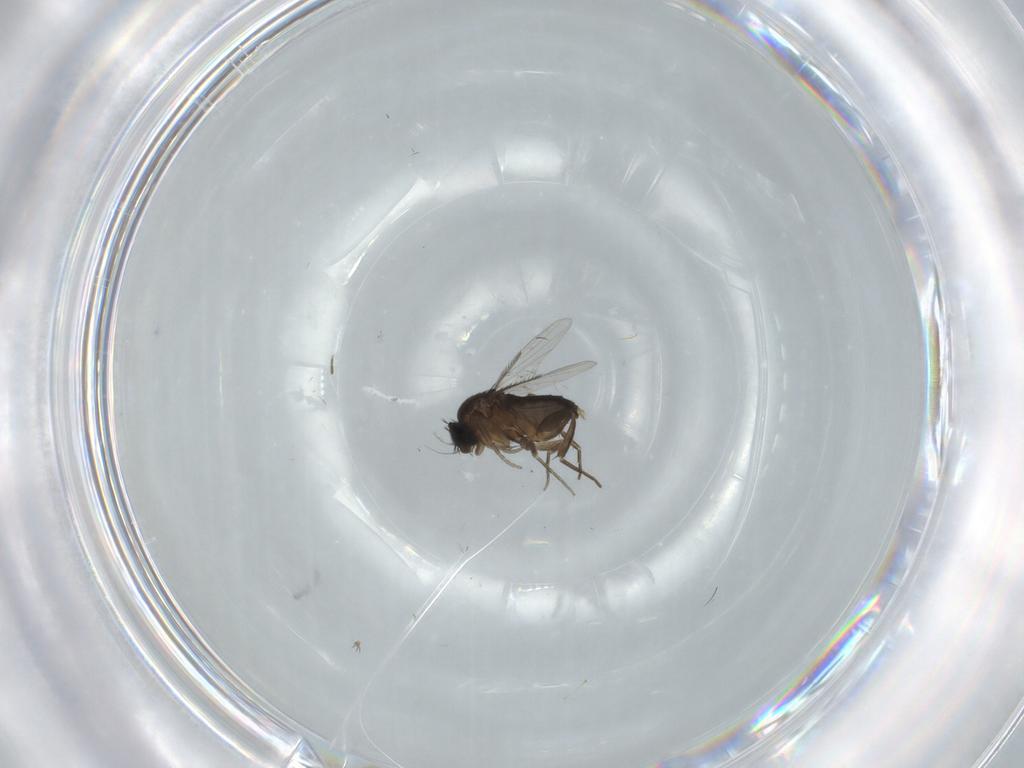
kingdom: Animalia
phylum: Arthropoda
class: Insecta
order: Diptera
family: Phoridae
